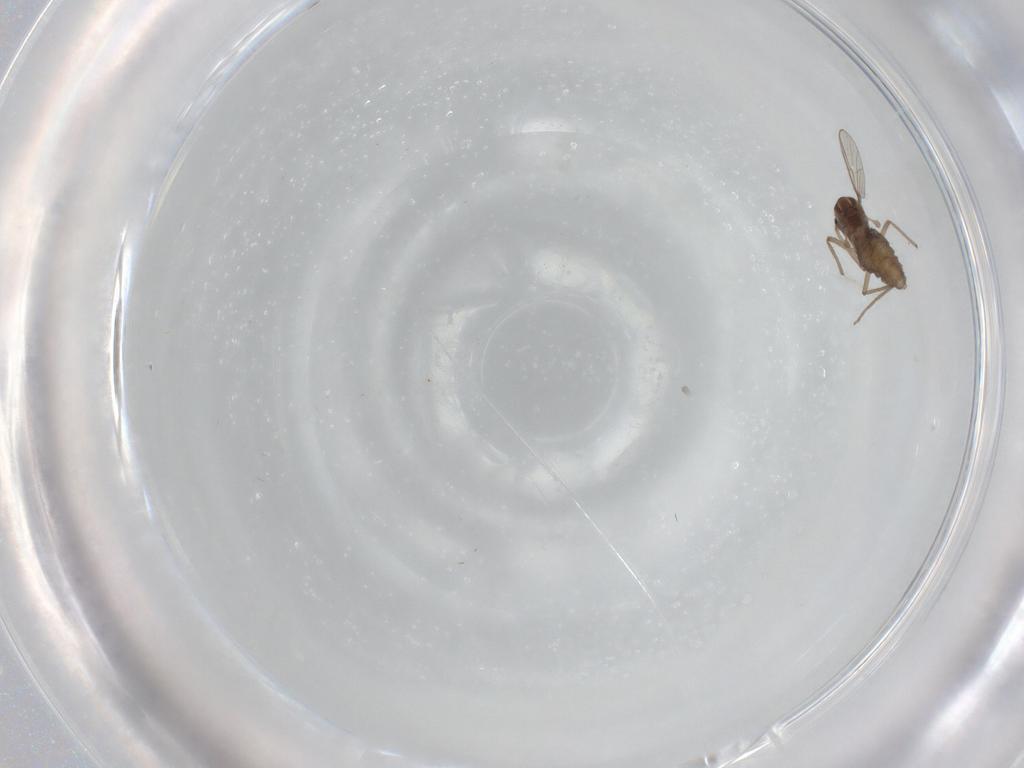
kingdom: Animalia
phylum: Arthropoda
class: Insecta
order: Diptera
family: Chironomidae
